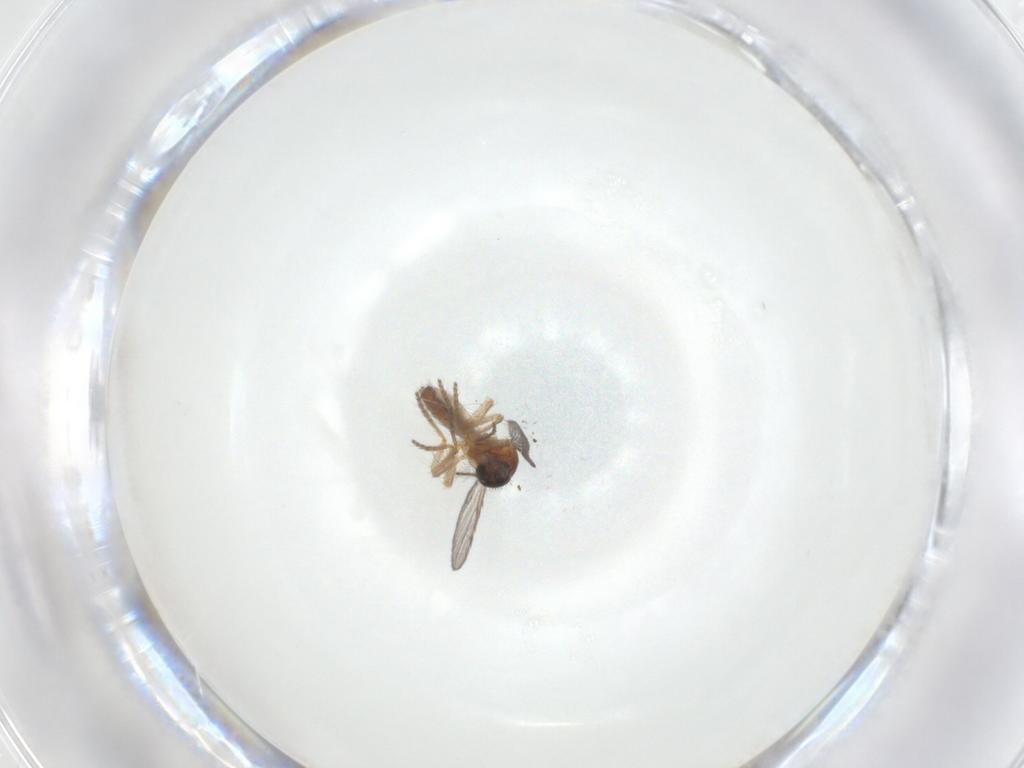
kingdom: Animalia
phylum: Arthropoda
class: Insecta
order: Diptera
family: Ceratopogonidae
